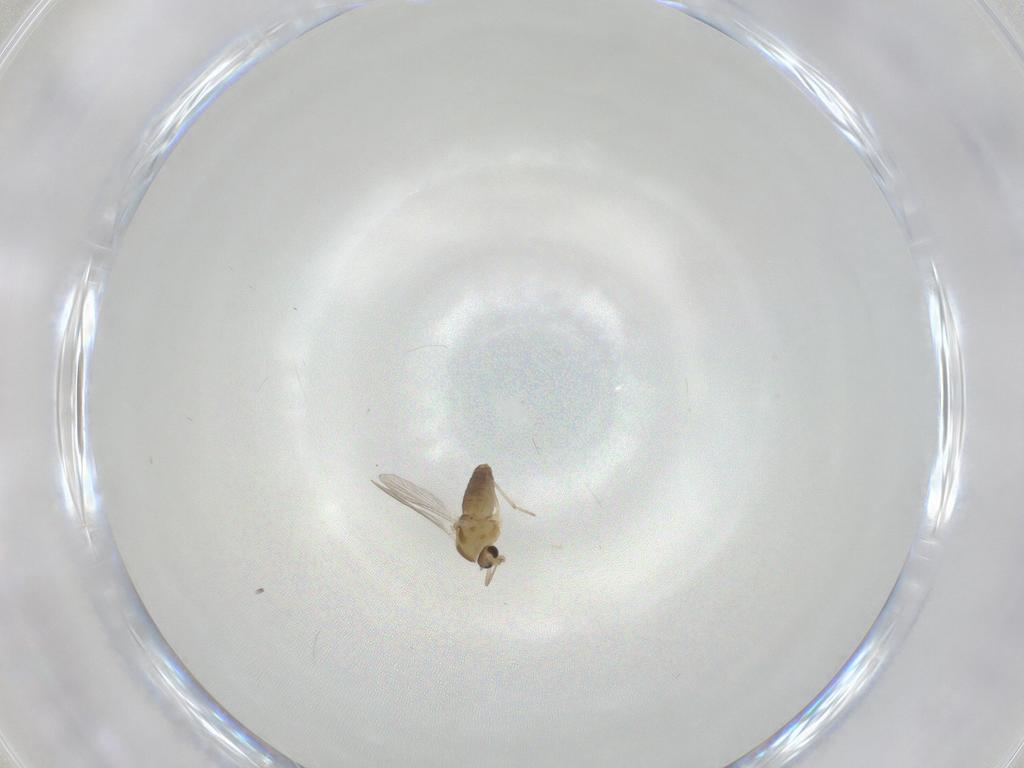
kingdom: Animalia
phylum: Arthropoda
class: Insecta
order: Diptera
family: Chironomidae
